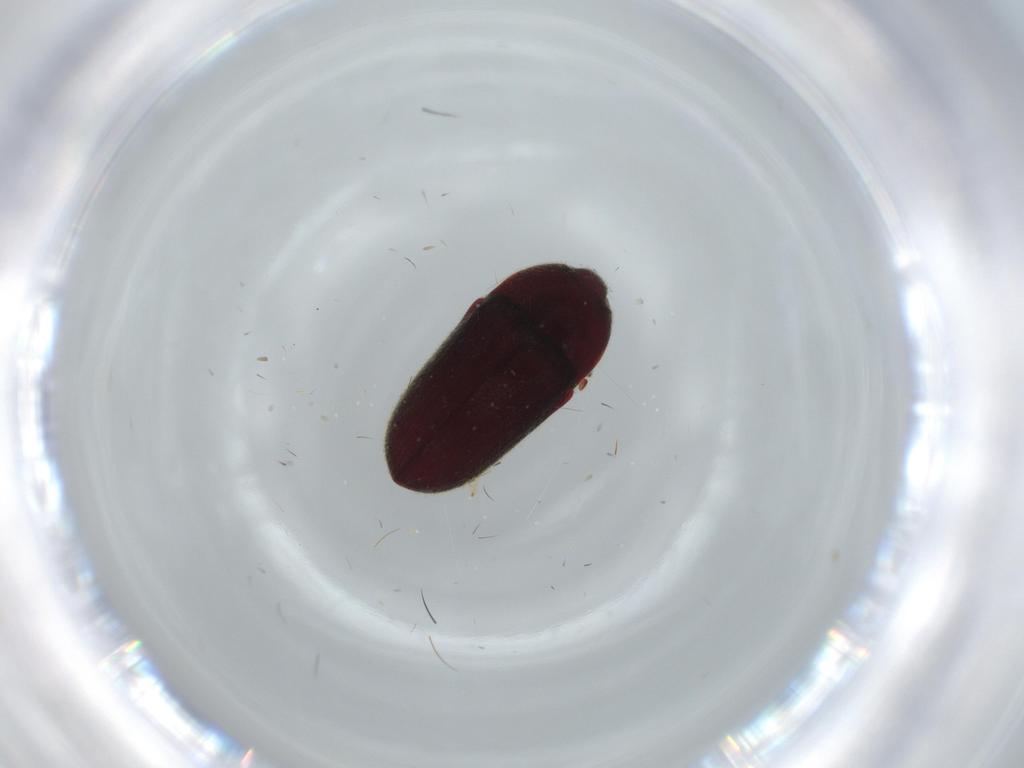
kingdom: Animalia
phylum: Arthropoda
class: Insecta
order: Coleoptera
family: Throscidae
